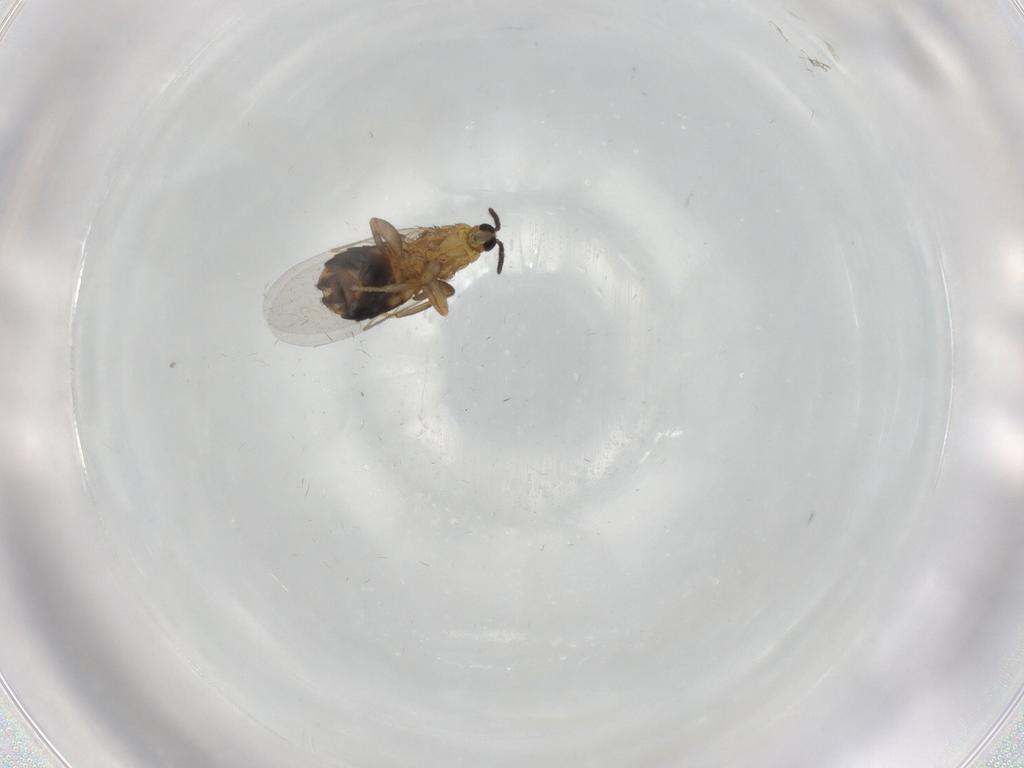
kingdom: Animalia
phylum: Arthropoda
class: Insecta
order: Diptera
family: Scatopsidae
